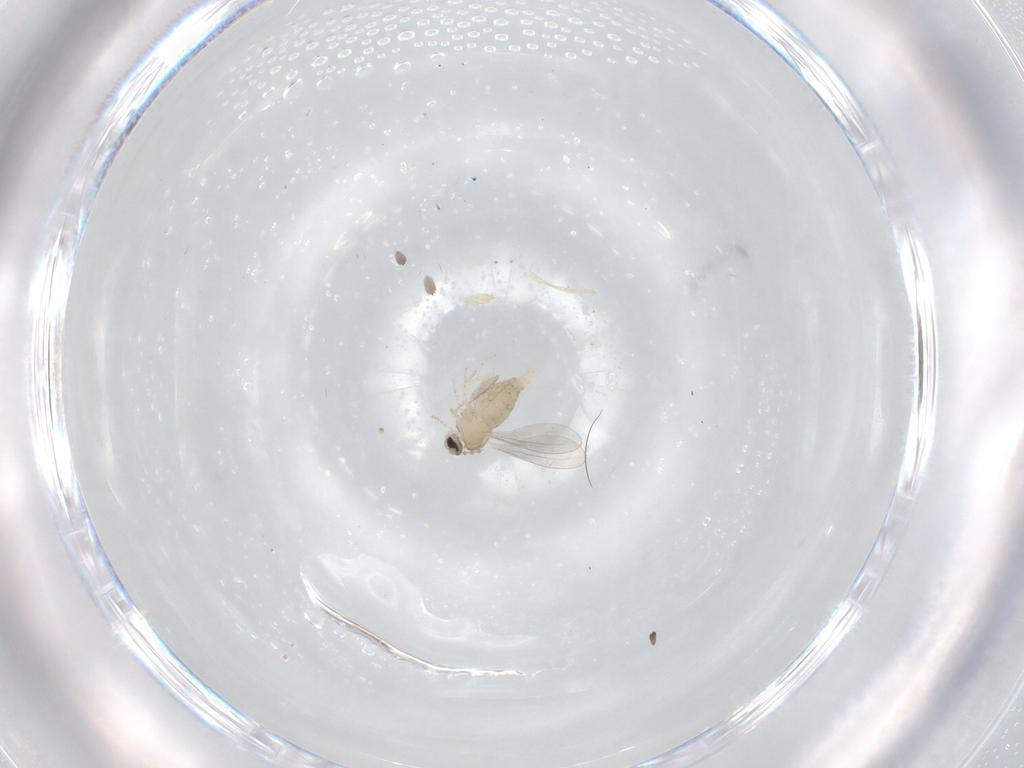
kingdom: Animalia
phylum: Arthropoda
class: Insecta
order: Diptera
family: Cecidomyiidae
